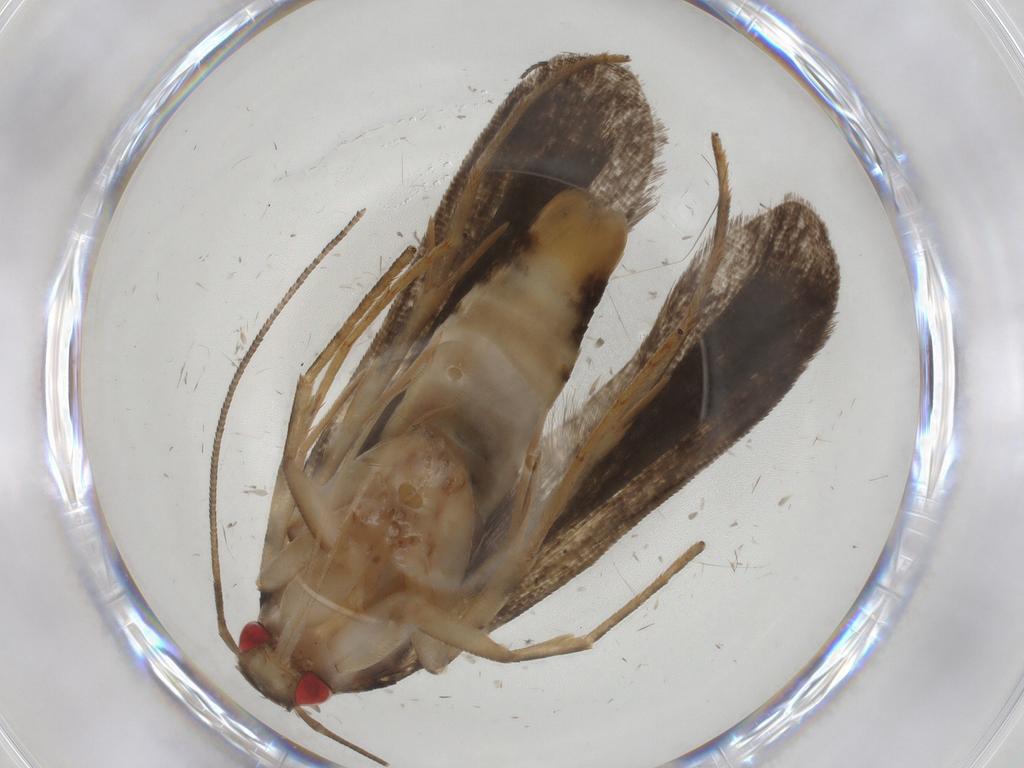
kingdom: Animalia
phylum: Arthropoda
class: Insecta
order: Lepidoptera
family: Crambidae
